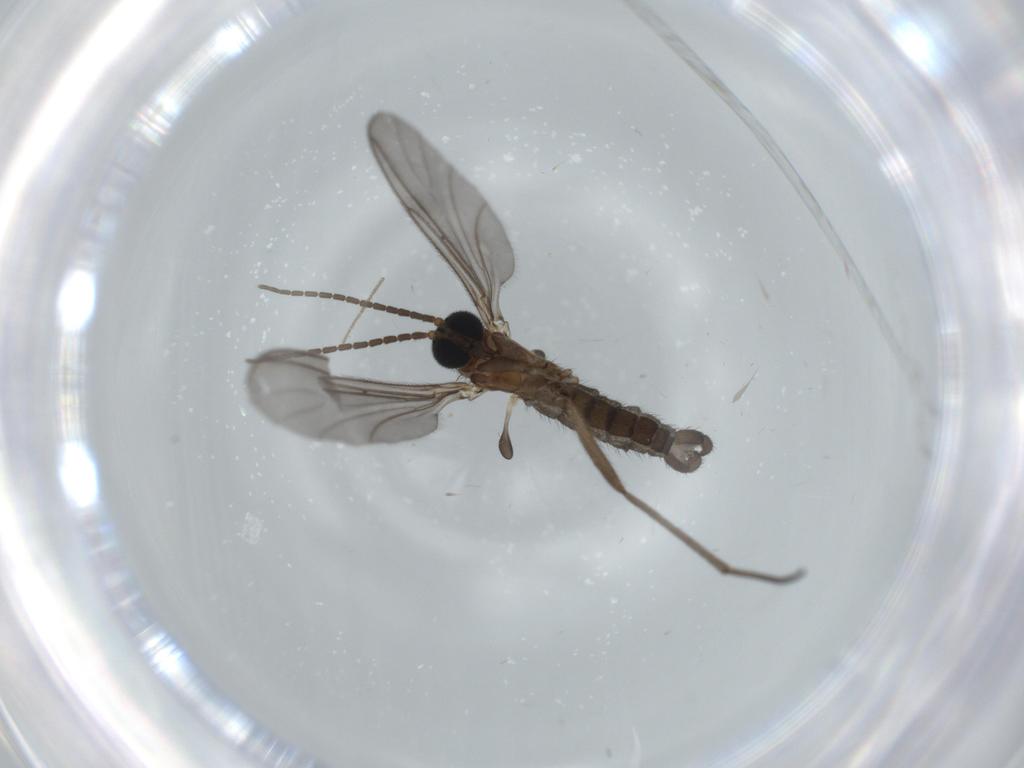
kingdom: Animalia
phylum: Arthropoda
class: Insecta
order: Diptera
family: Sciaridae
